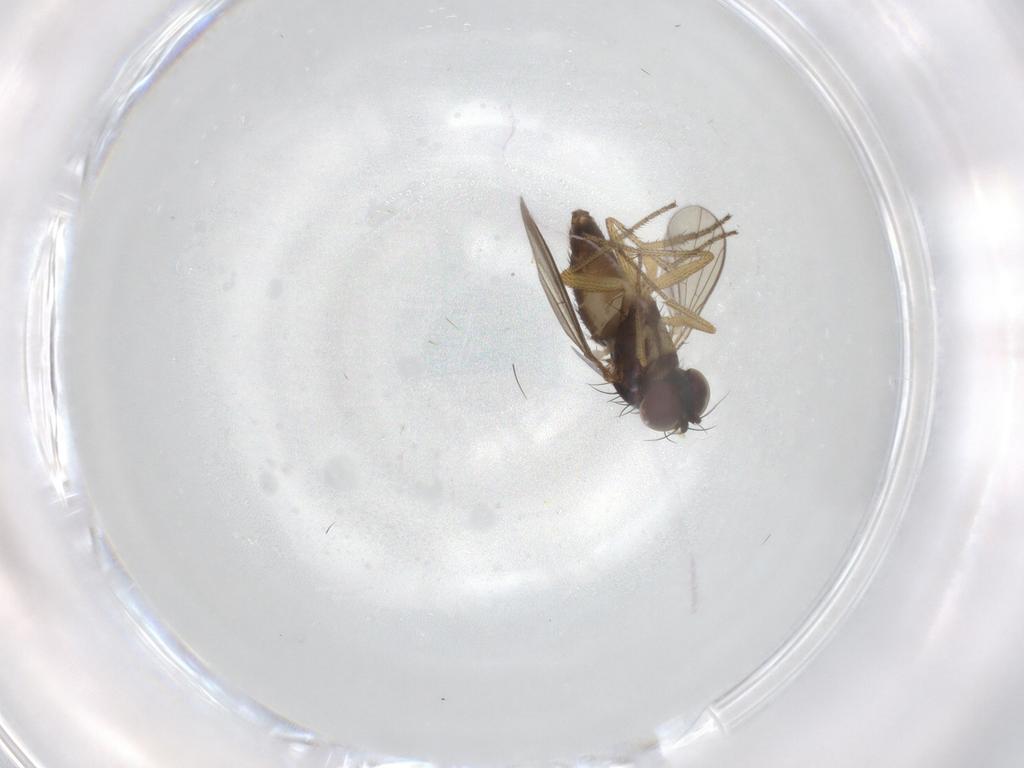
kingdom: Animalia
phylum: Arthropoda
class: Insecta
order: Diptera
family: Dolichopodidae
